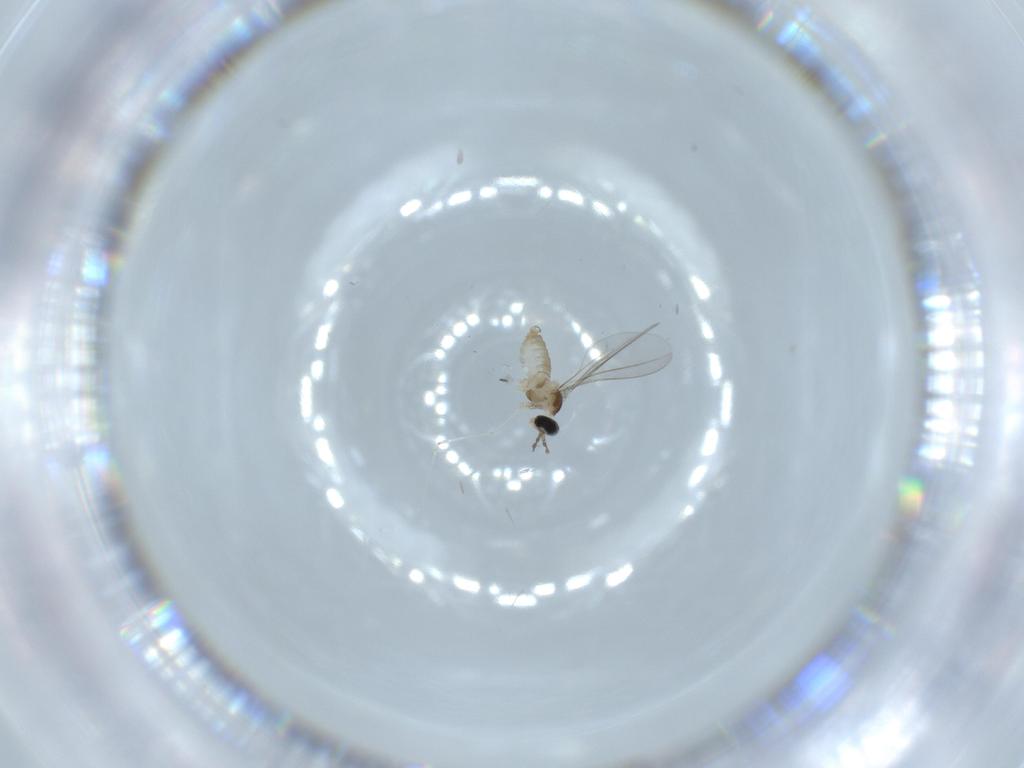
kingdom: Animalia
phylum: Arthropoda
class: Insecta
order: Diptera
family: Cecidomyiidae
